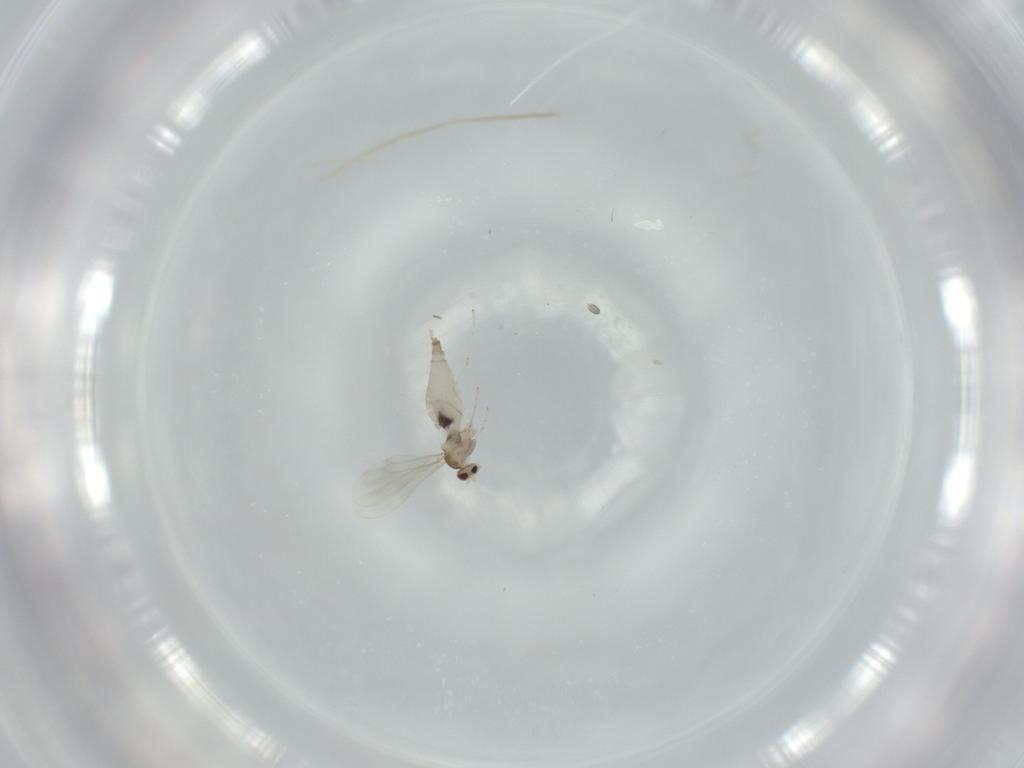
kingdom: Animalia
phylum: Arthropoda
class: Insecta
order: Diptera
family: Cecidomyiidae
